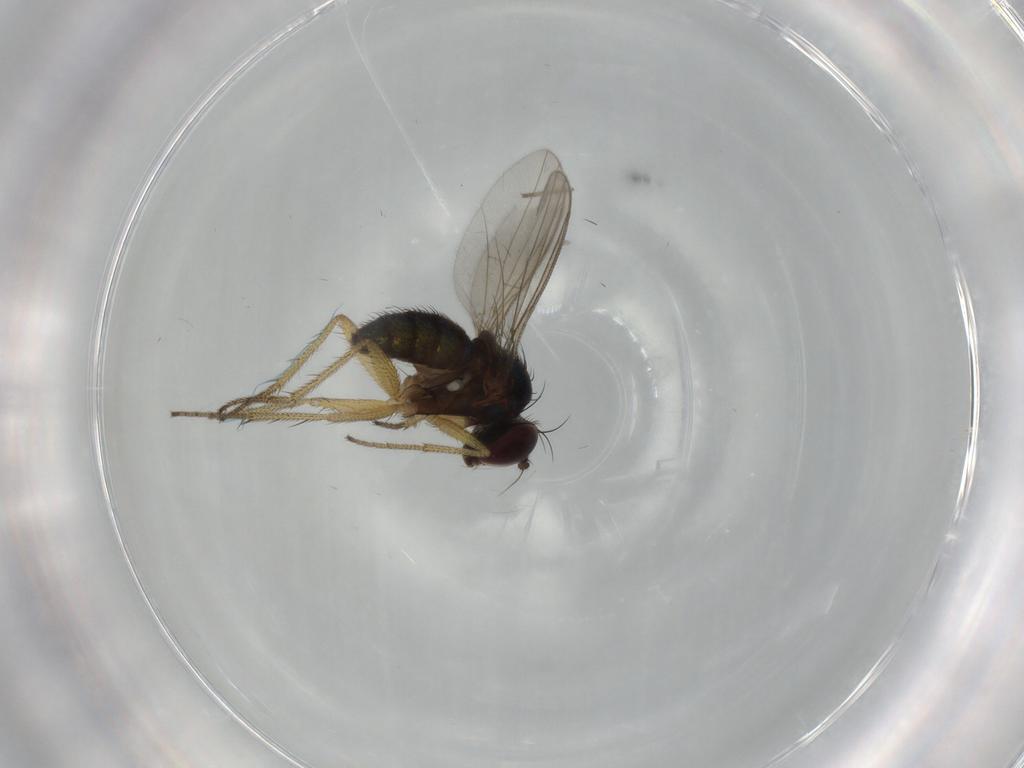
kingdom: Animalia
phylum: Arthropoda
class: Insecta
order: Diptera
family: Dolichopodidae
